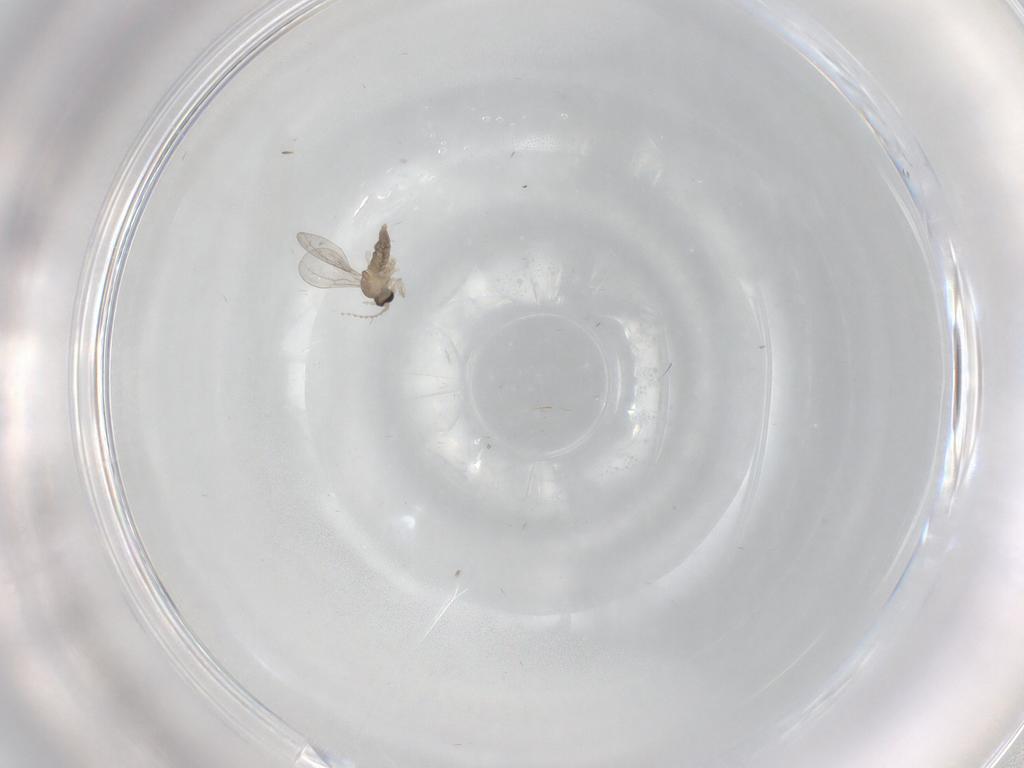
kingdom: Animalia
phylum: Arthropoda
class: Insecta
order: Diptera
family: Cecidomyiidae
